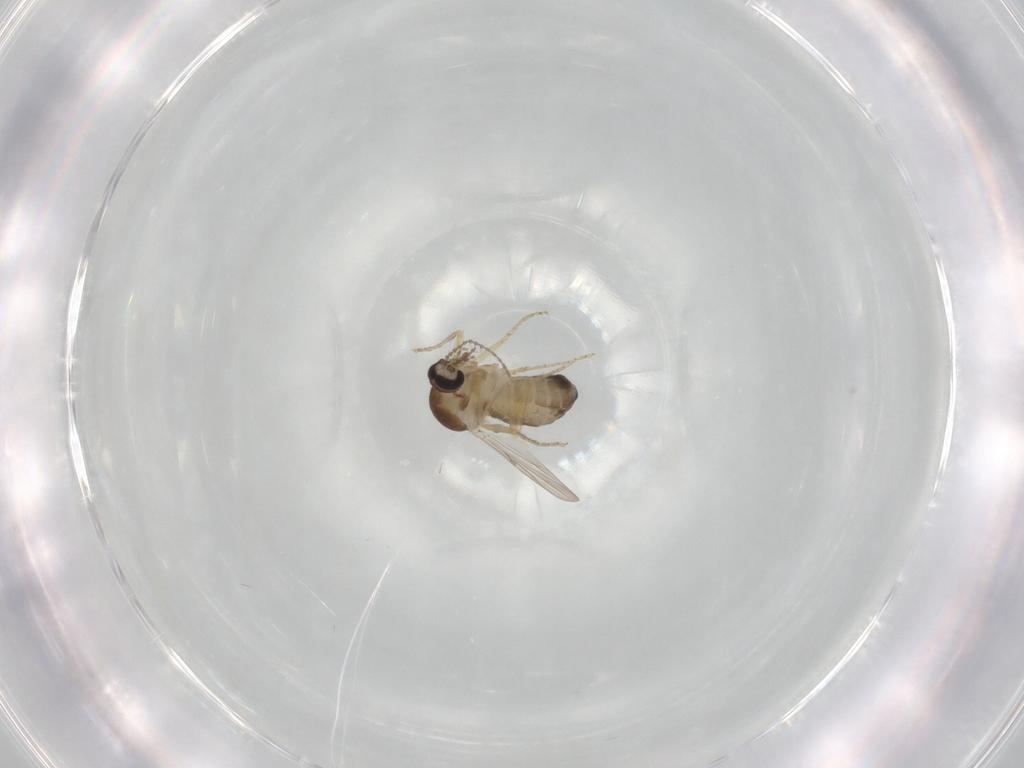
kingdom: Animalia
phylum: Arthropoda
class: Insecta
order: Diptera
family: Ceratopogonidae
